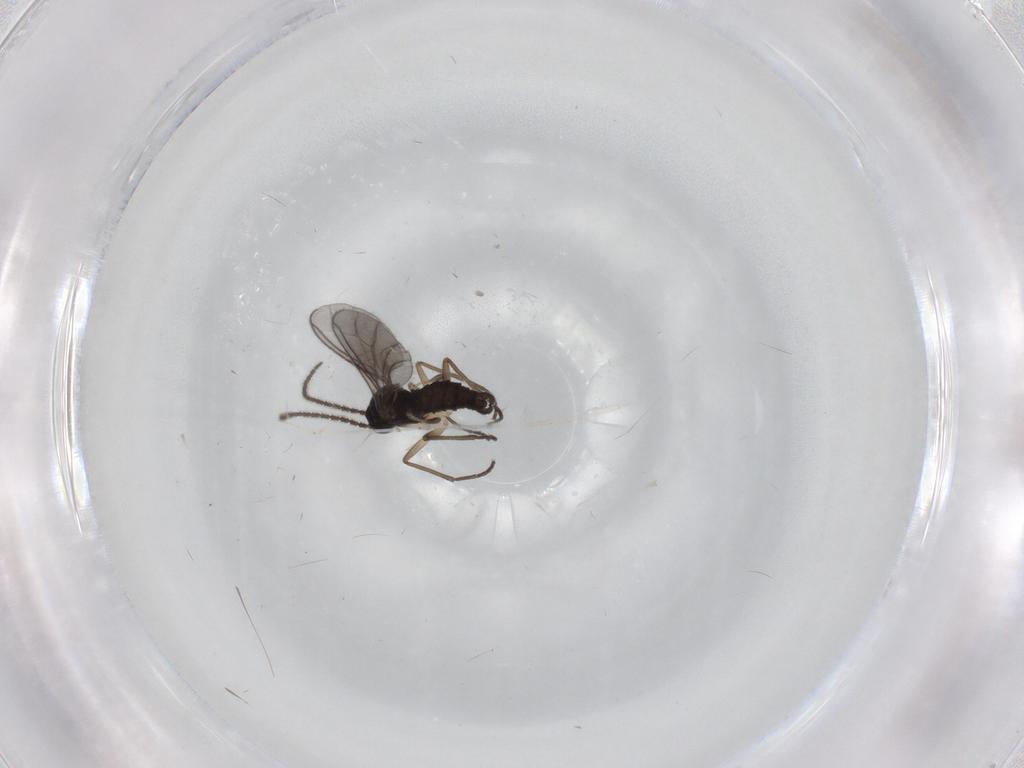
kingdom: Animalia
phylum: Arthropoda
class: Insecta
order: Diptera
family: Sciaridae
